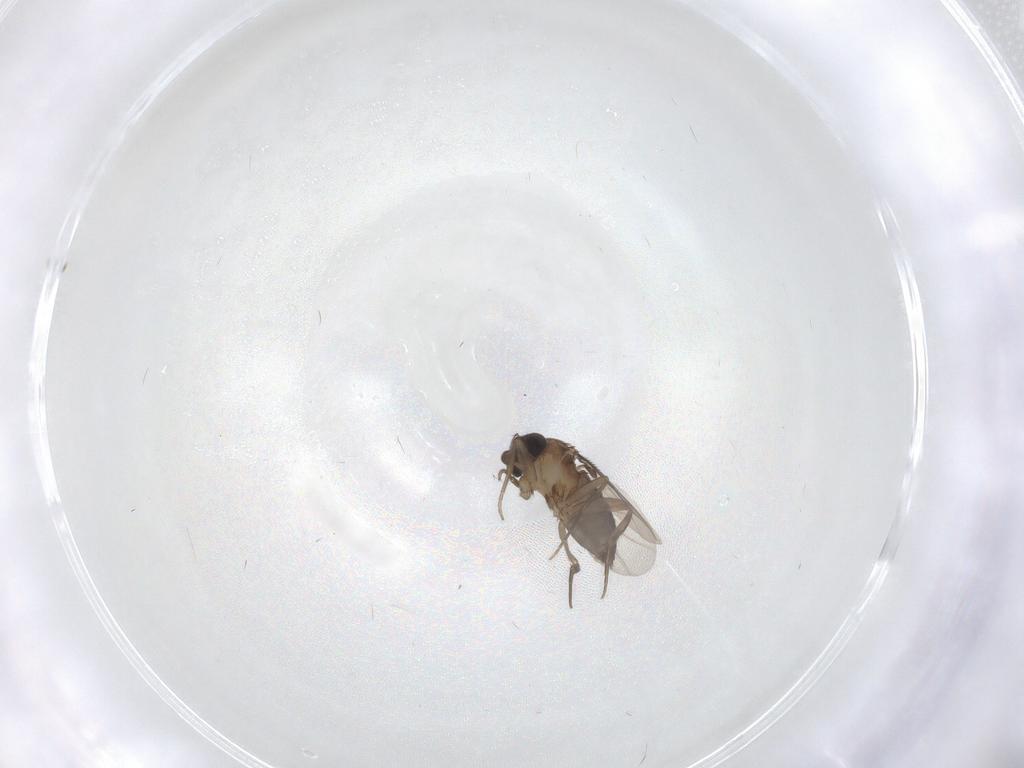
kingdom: Animalia
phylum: Arthropoda
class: Insecta
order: Diptera
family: Phoridae
